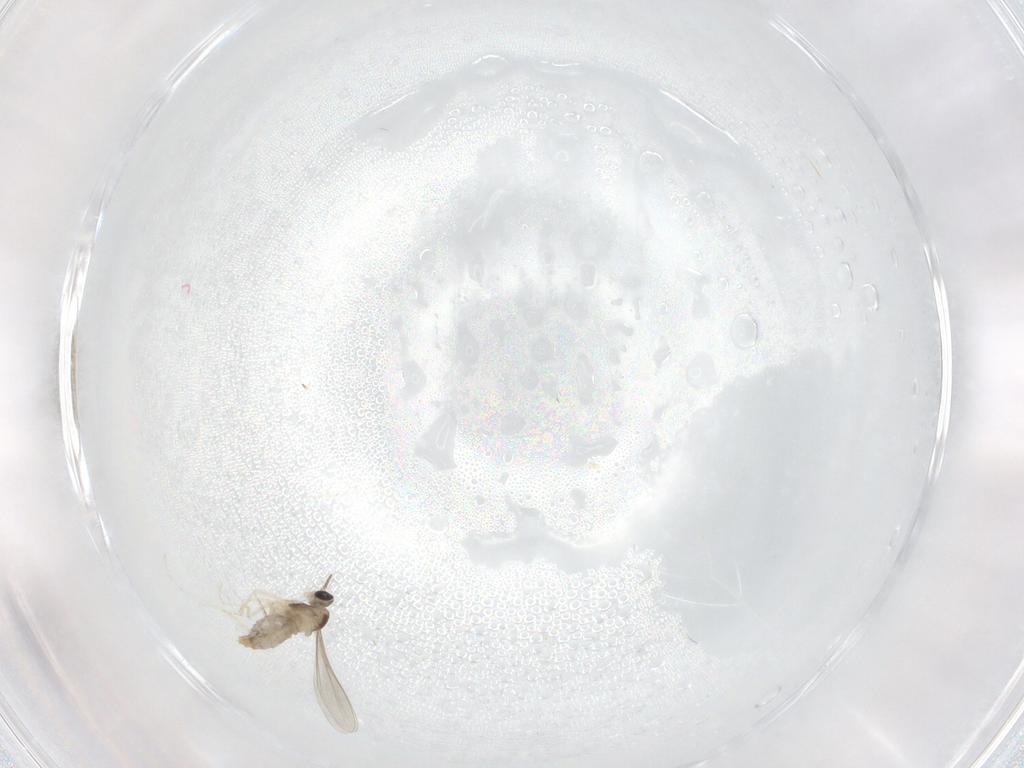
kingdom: Animalia
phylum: Arthropoda
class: Insecta
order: Diptera
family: Cecidomyiidae
